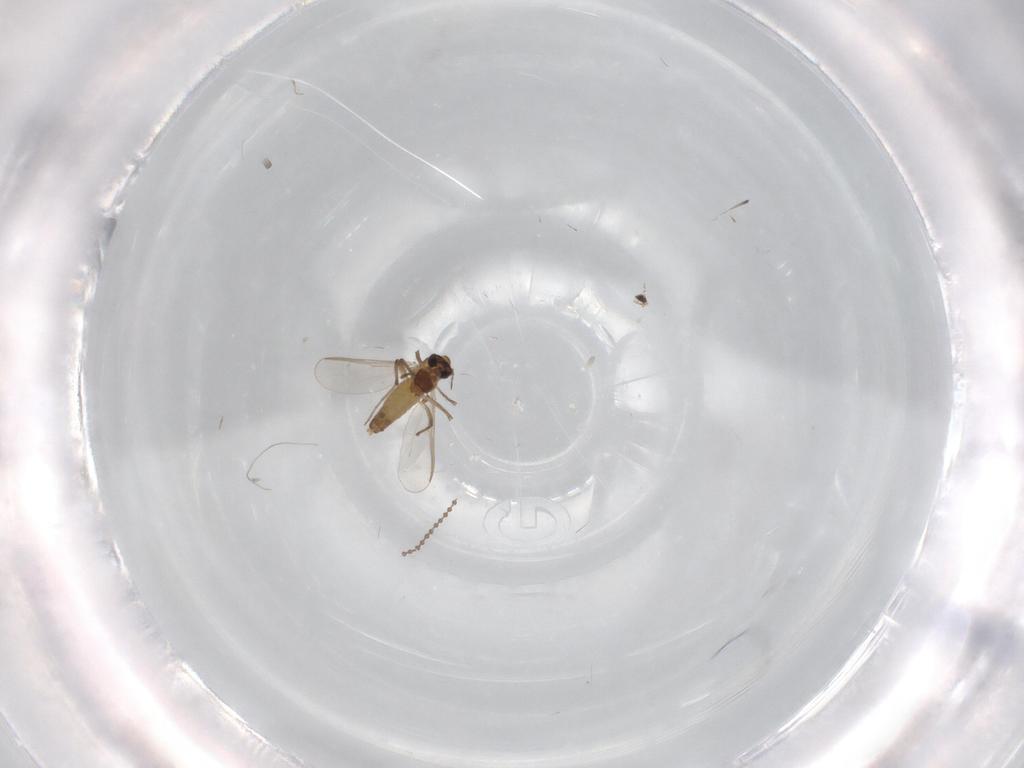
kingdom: Animalia
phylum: Arthropoda
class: Insecta
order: Diptera
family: Chironomidae
